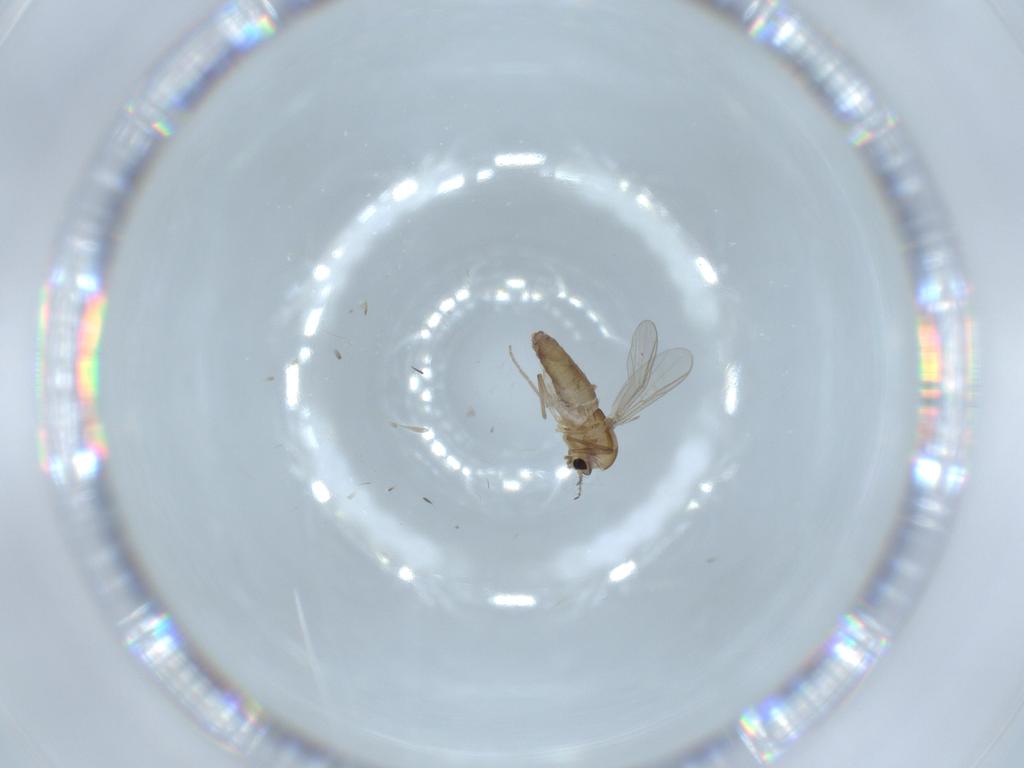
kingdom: Animalia
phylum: Arthropoda
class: Insecta
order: Diptera
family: Chironomidae
